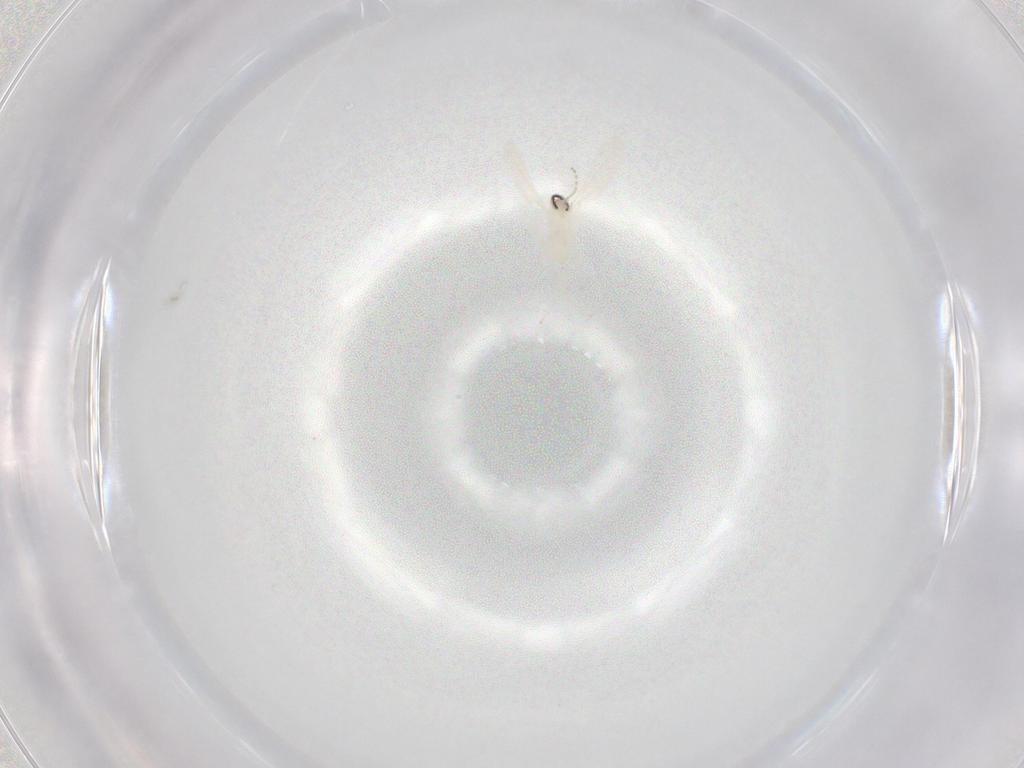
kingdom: Animalia
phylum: Arthropoda
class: Insecta
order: Diptera
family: Cecidomyiidae
